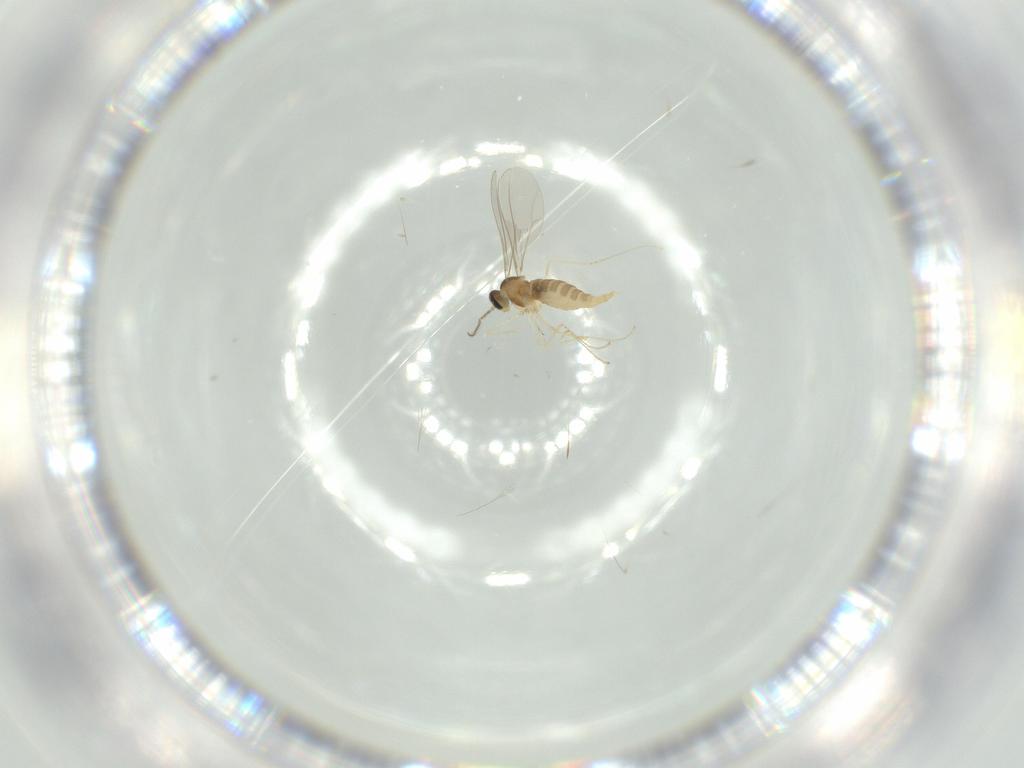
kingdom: Animalia
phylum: Arthropoda
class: Insecta
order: Diptera
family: Cecidomyiidae
